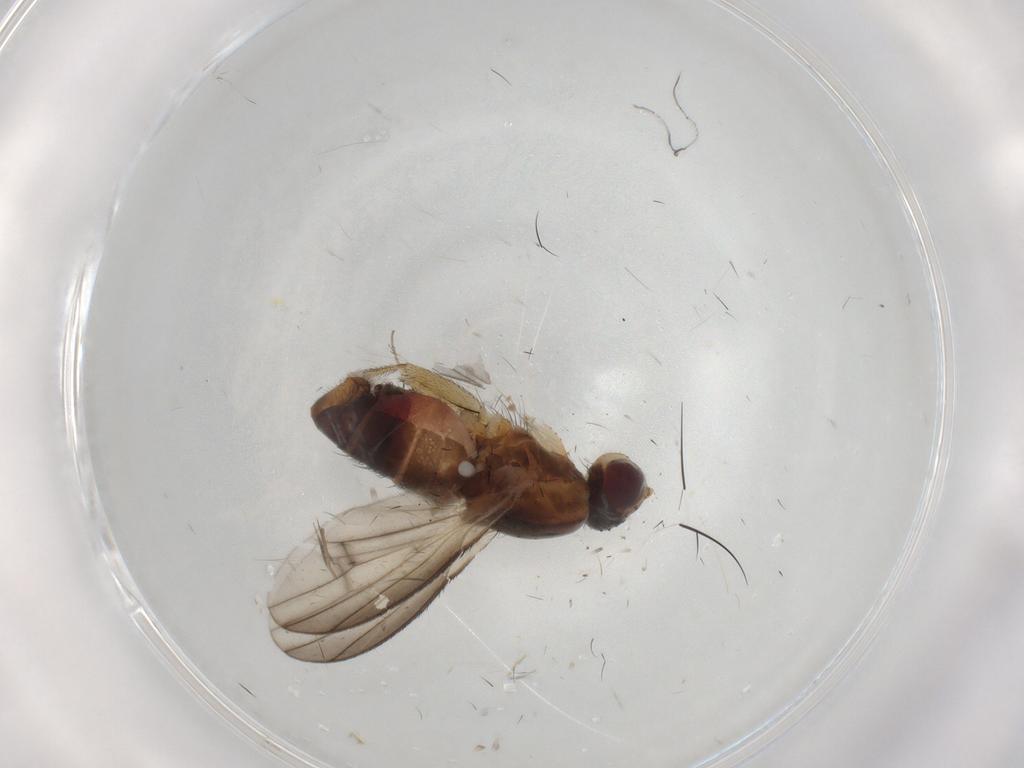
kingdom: Animalia
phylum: Arthropoda
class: Insecta
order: Diptera
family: Heleomyzidae
